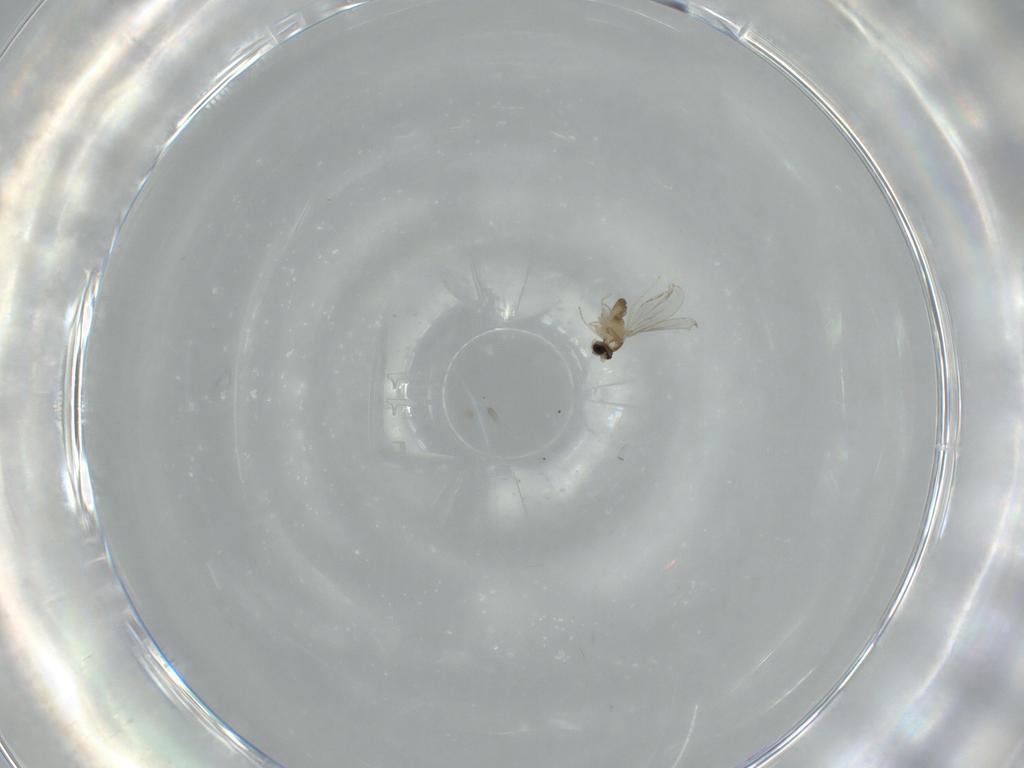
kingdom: Animalia
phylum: Arthropoda
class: Insecta
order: Diptera
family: Cecidomyiidae
